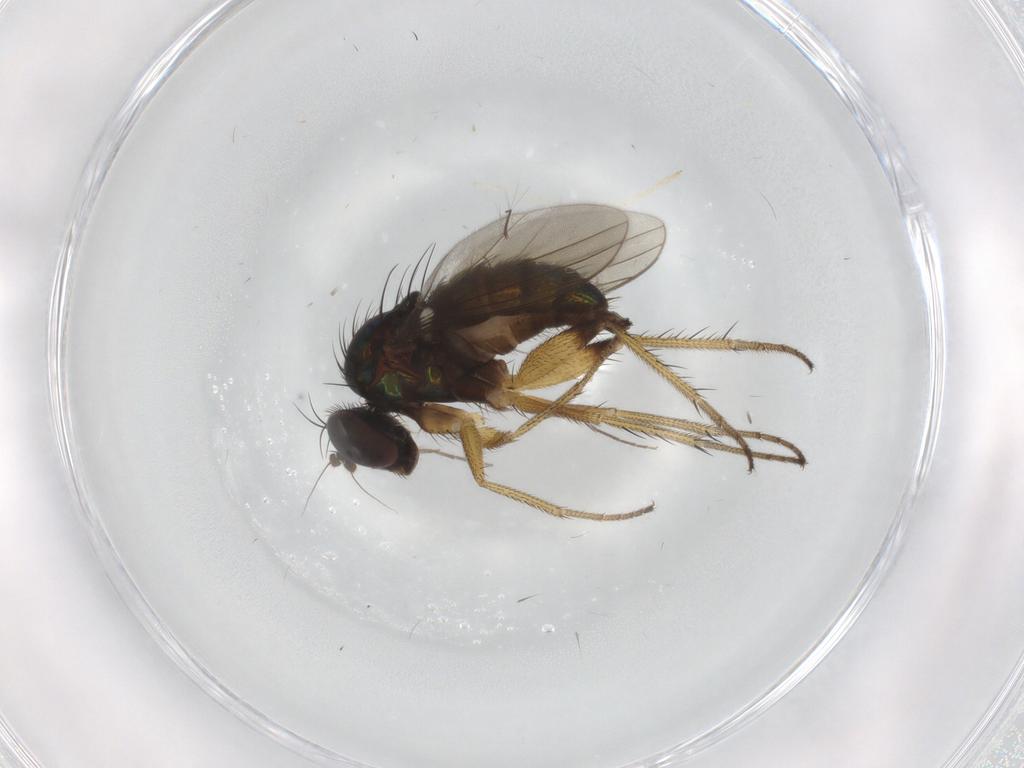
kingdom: Animalia
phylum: Arthropoda
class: Insecta
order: Diptera
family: Dolichopodidae
